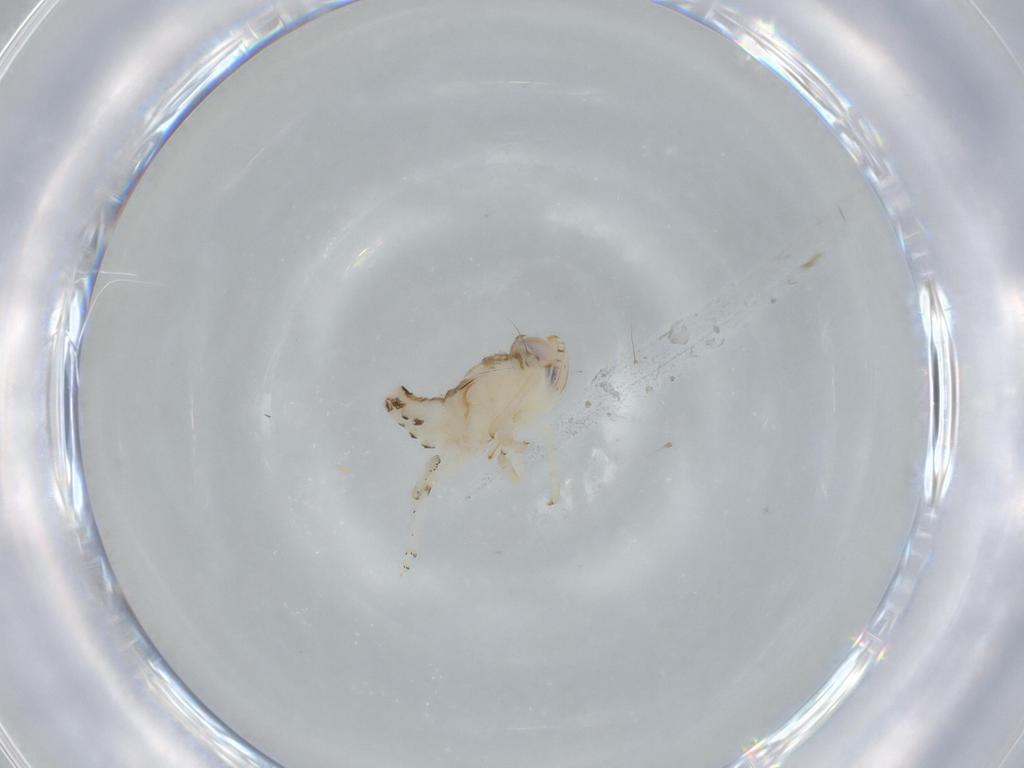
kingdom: Animalia
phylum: Arthropoda
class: Insecta
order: Hemiptera
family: Nogodinidae
